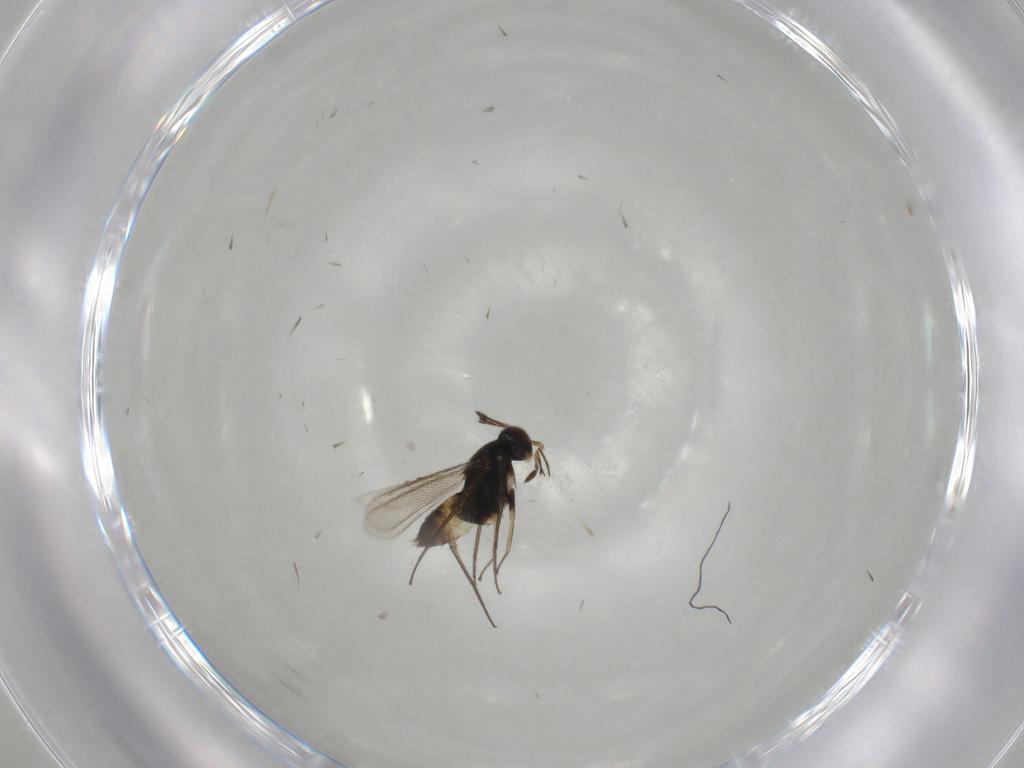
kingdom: Animalia
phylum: Arthropoda
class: Insecta
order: Hymenoptera
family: Eulophidae
